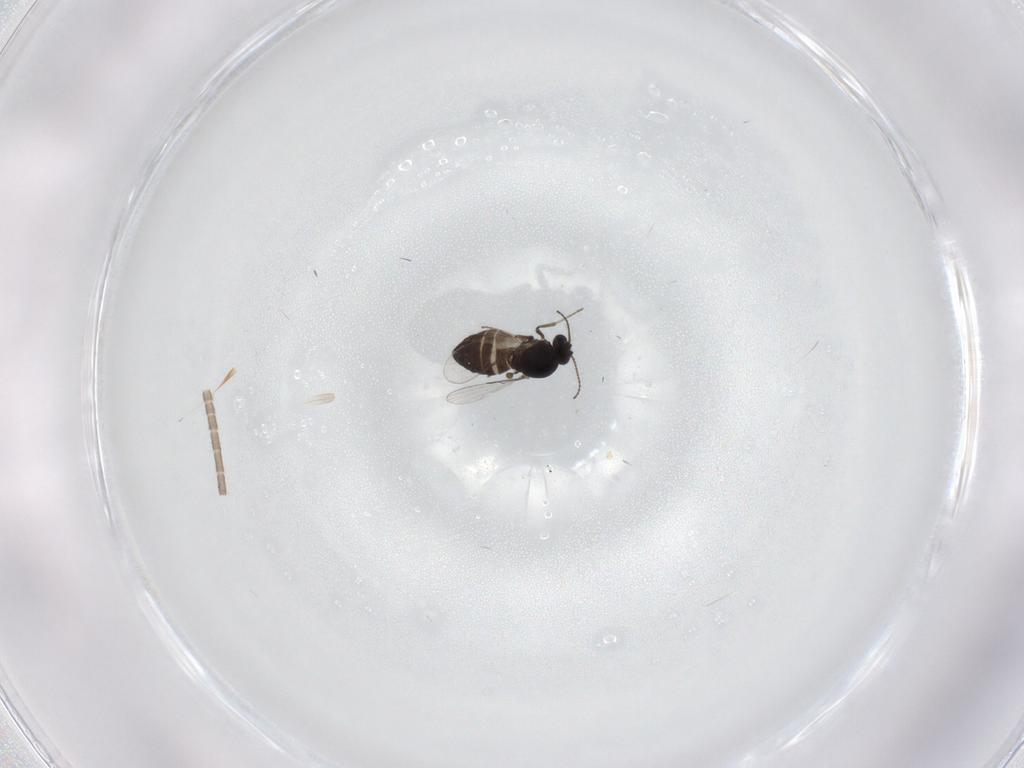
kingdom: Animalia
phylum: Arthropoda
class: Insecta
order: Diptera
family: Ceratopogonidae
